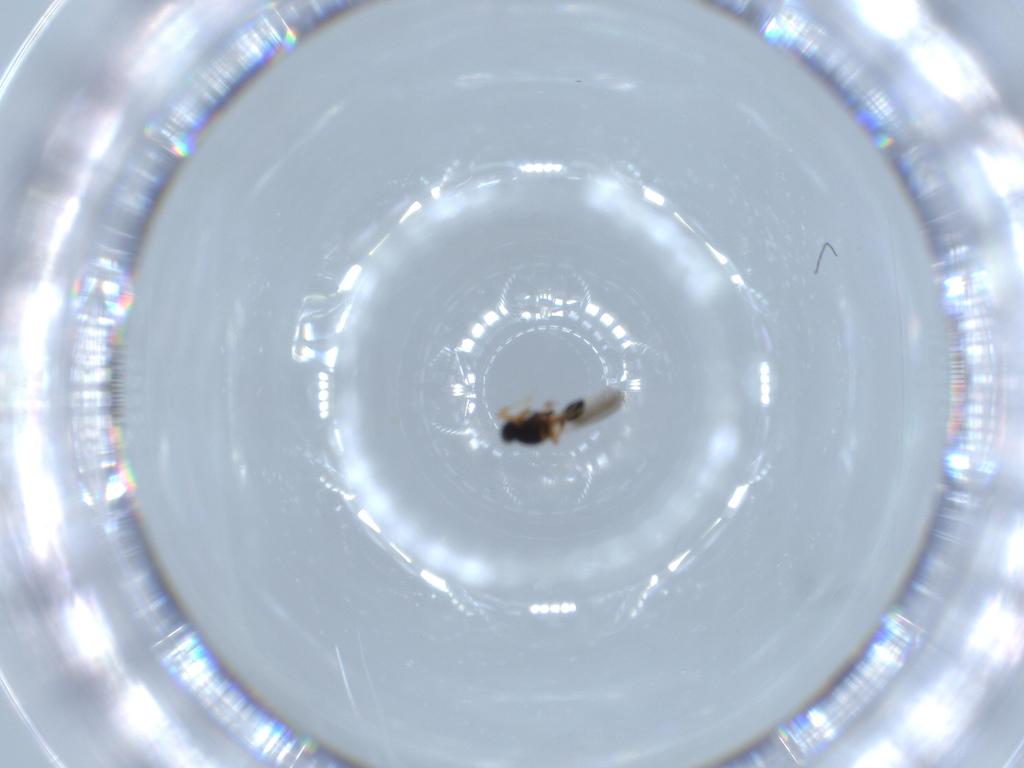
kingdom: Animalia
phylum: Arthropoda
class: Insecta
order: Hymenoptera
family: Platygastridae
